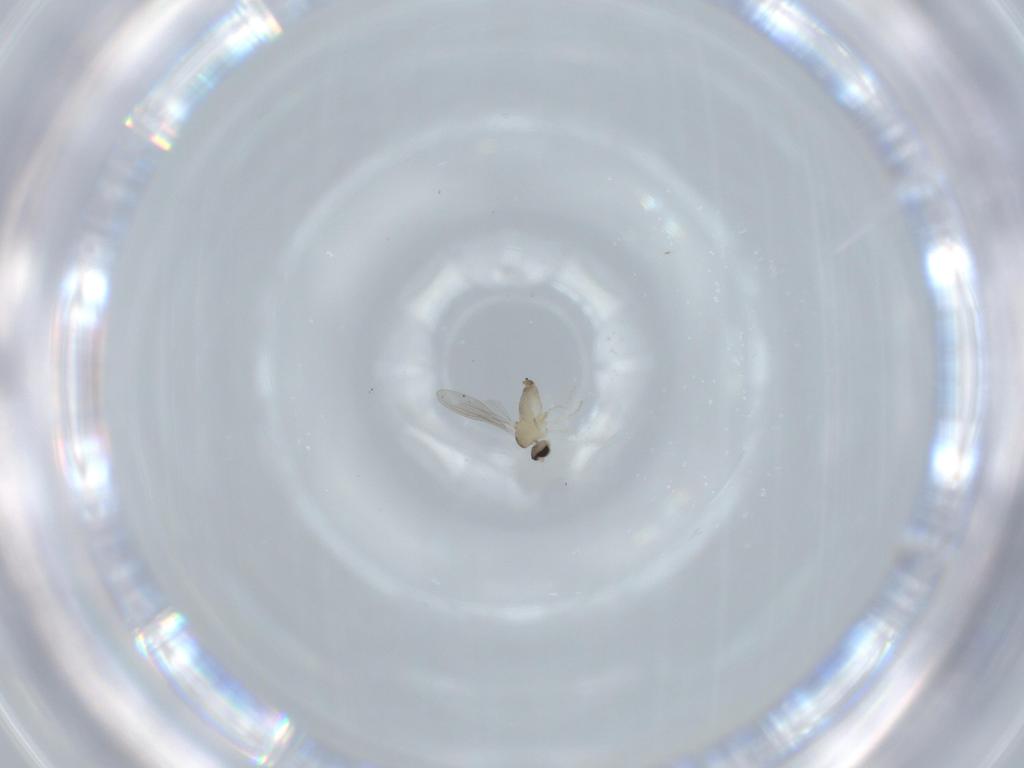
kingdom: Animalia
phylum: Arthropoda
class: Insecta
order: Diptera
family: Cecidomyiidae
